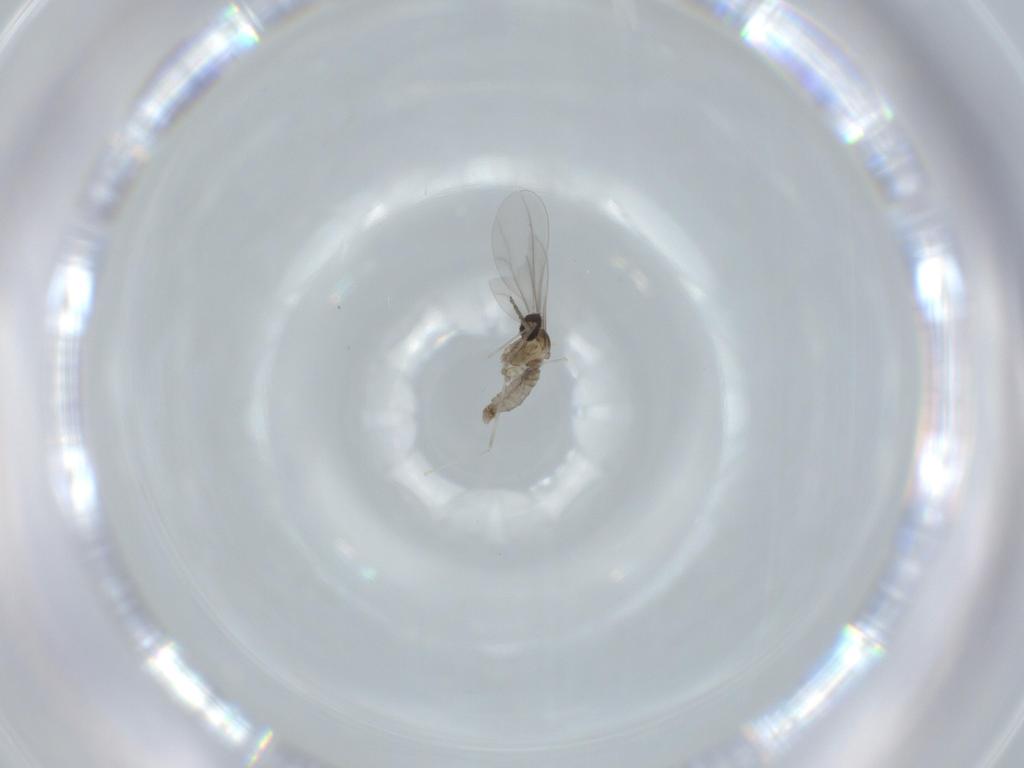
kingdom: Animalia
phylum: Arthropoda
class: Insecta
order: Diptera
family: Cecidomyiidae
